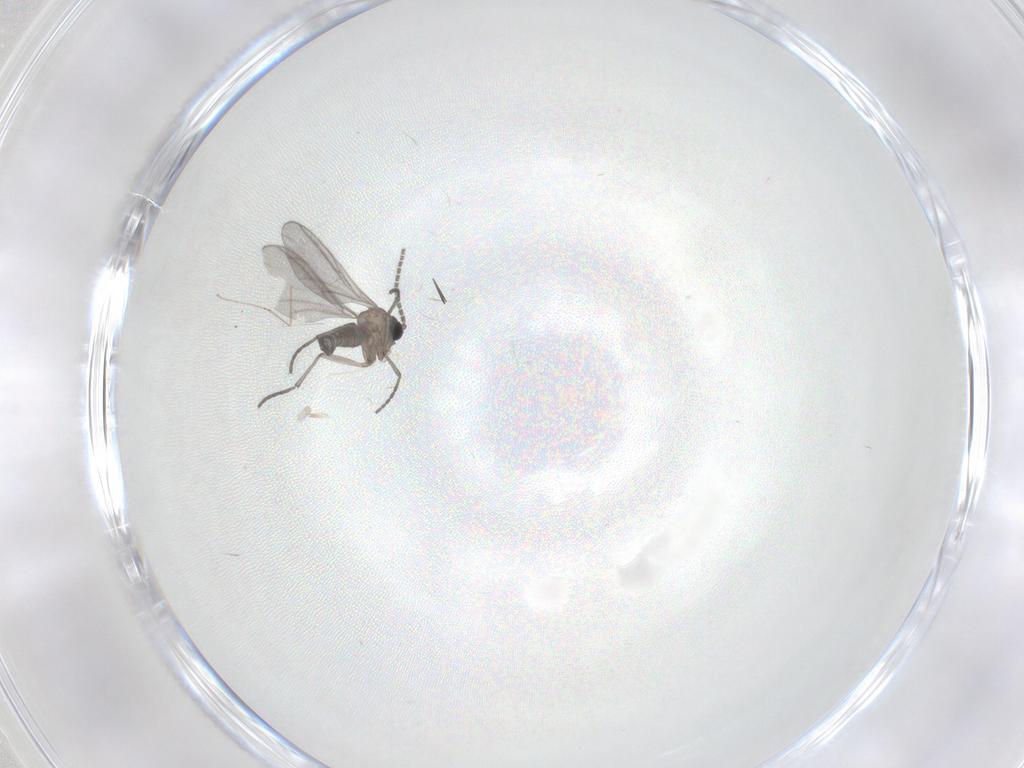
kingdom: Animalia
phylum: Arthropoda
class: Insecta
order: Diptera
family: Sciaridae
